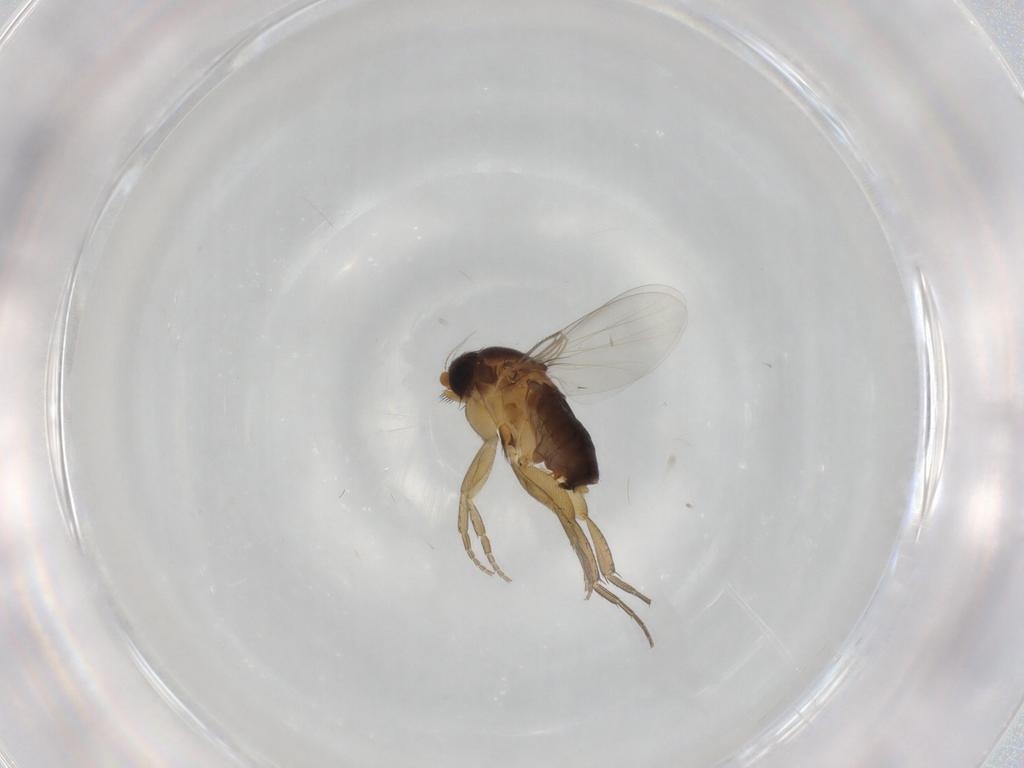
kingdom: Animalia
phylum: Arthropoda
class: Insecta
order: Diptera
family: Phoridae
